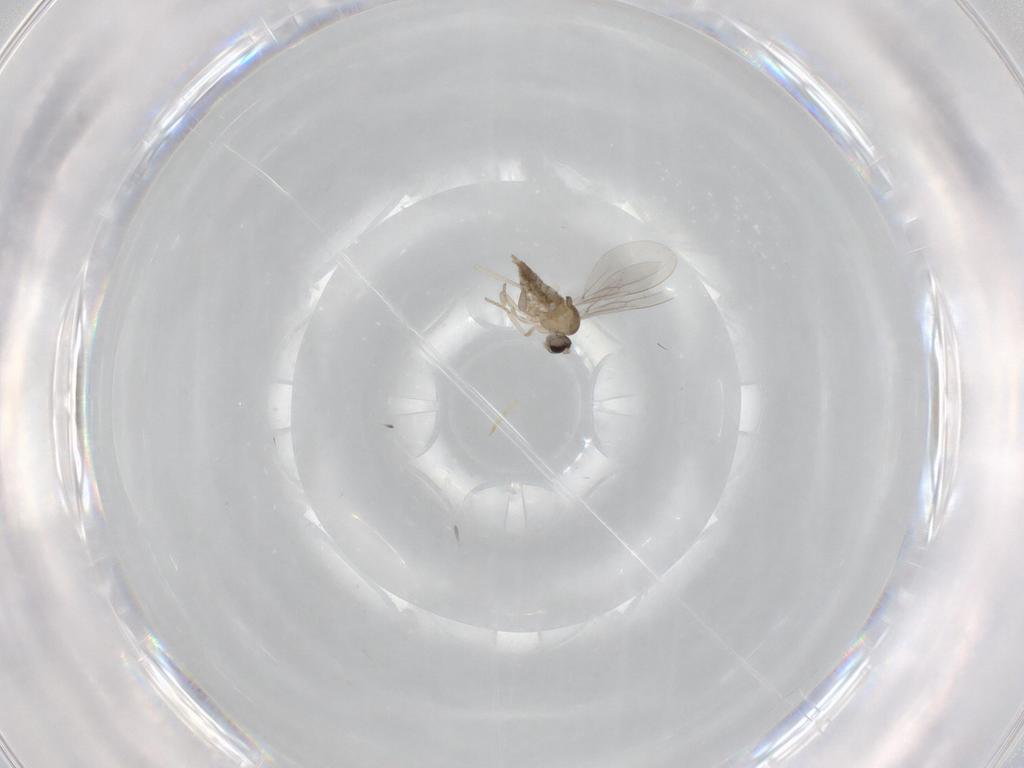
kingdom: Animalia
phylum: Arthropoda
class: Insecta
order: Diptera
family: Cecidomyiidae
